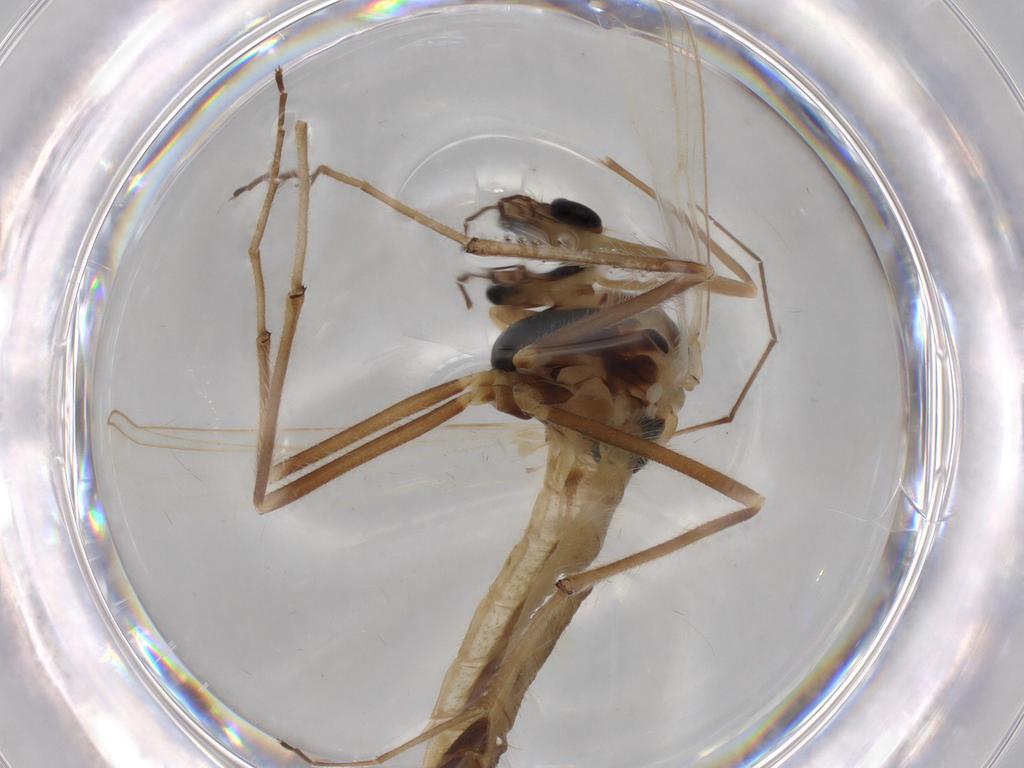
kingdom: Animalia
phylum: Arthropoda
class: Insecta
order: Diptera
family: Chironomidae
